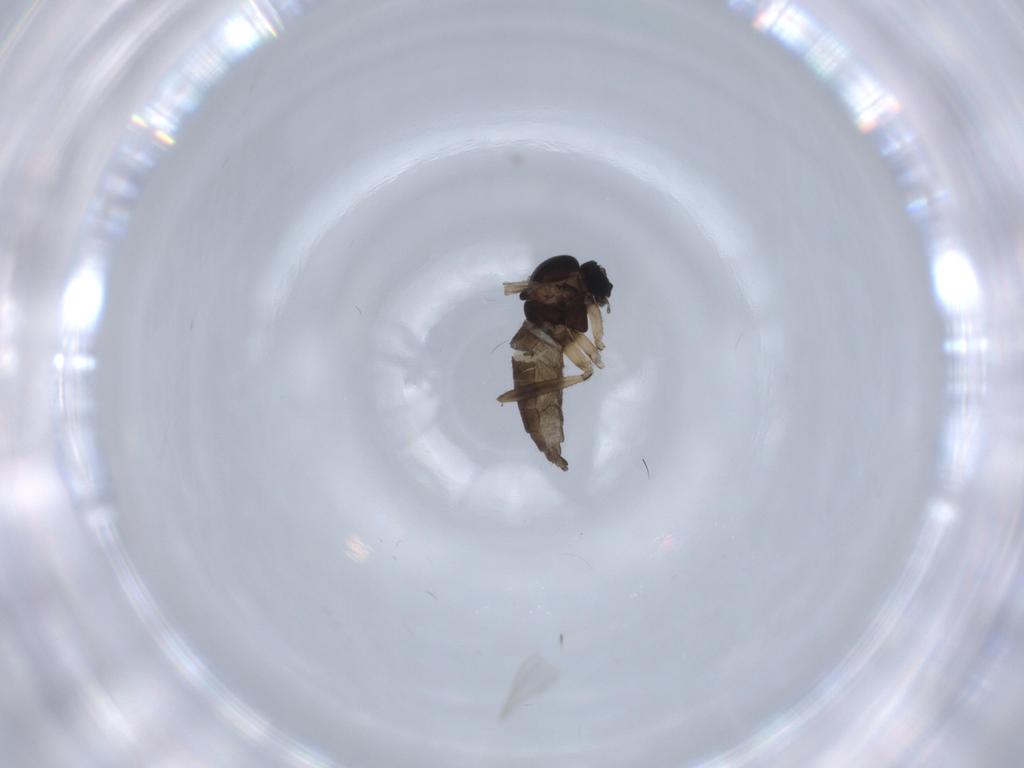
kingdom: Animalia
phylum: Arthropoda
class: Insecta
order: Diptera
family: Sciaridae
